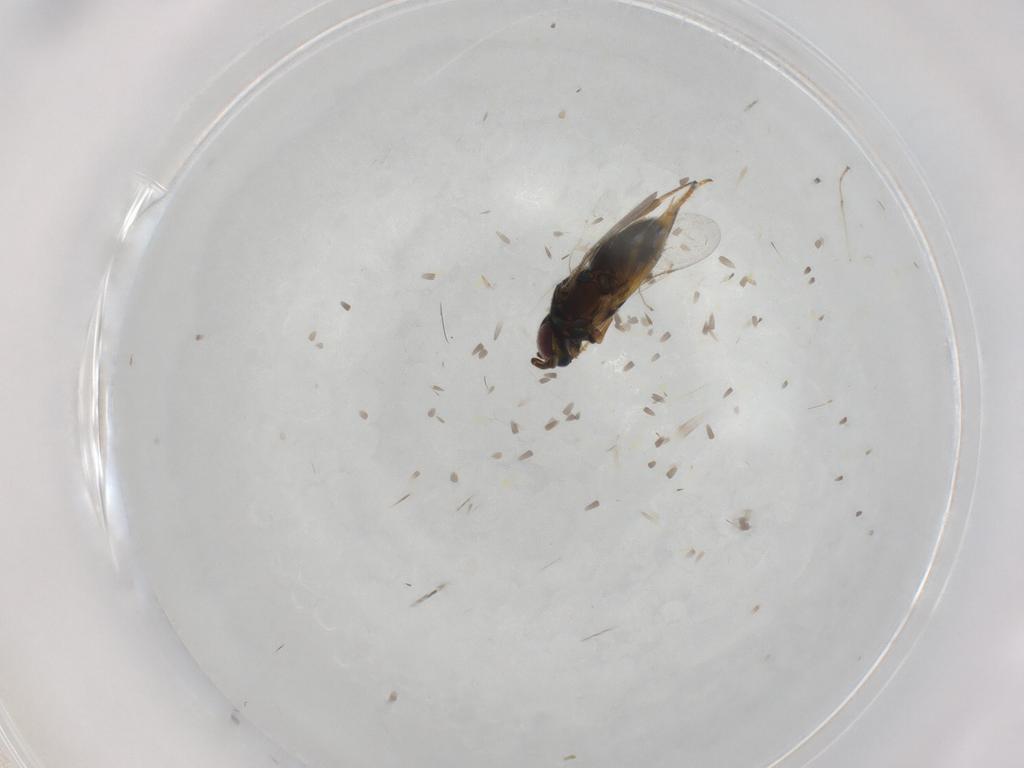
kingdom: Animalia
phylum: Arthropoda
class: Insecta
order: Hymenoptera
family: Encyrtidae
